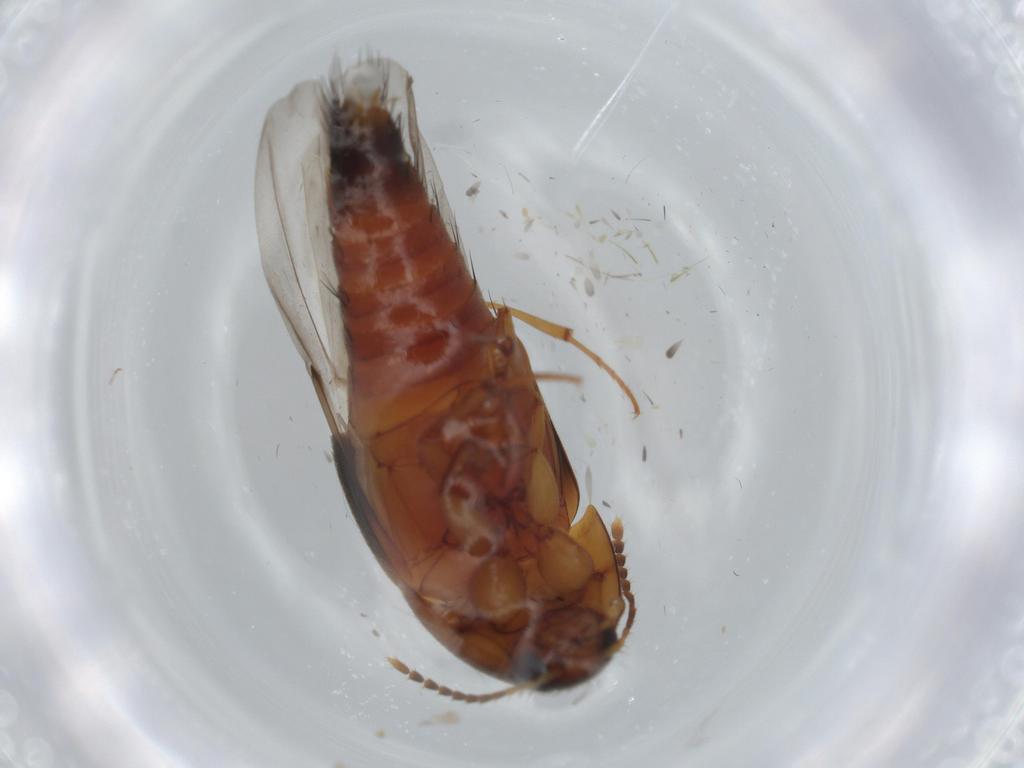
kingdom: Animalia
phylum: Arthropoda
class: Insecta
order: Coleoptera
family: Staphylinidae
